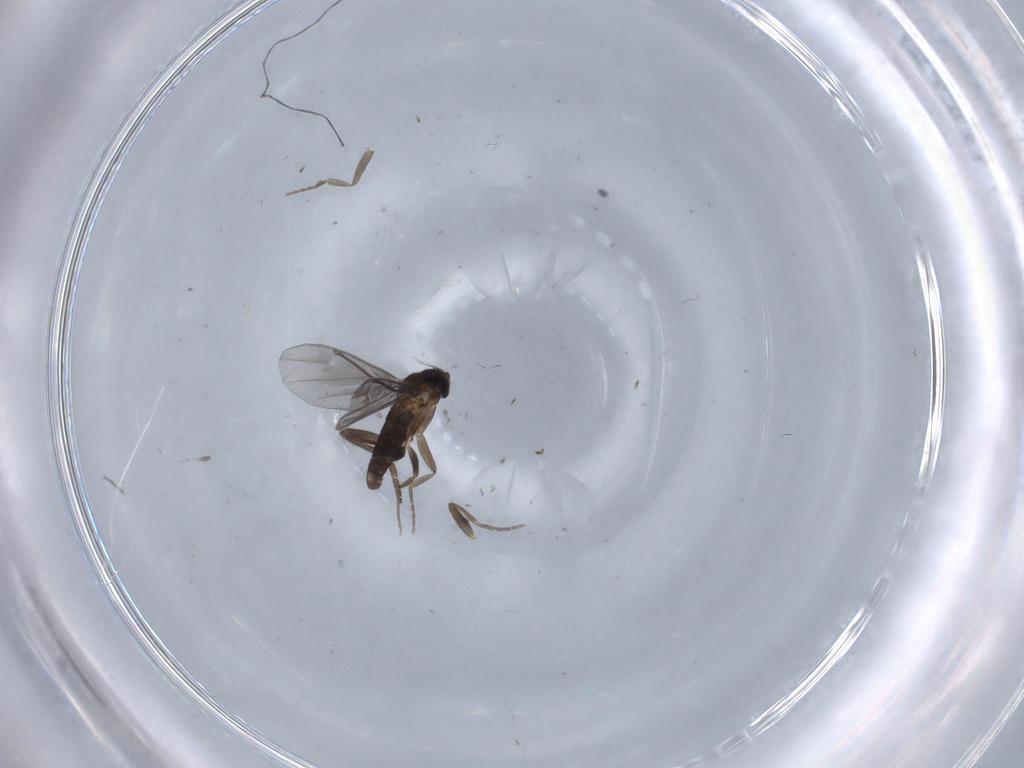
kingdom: Animalia
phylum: Arthropoda
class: Insecta
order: Diptera
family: Phoridae
